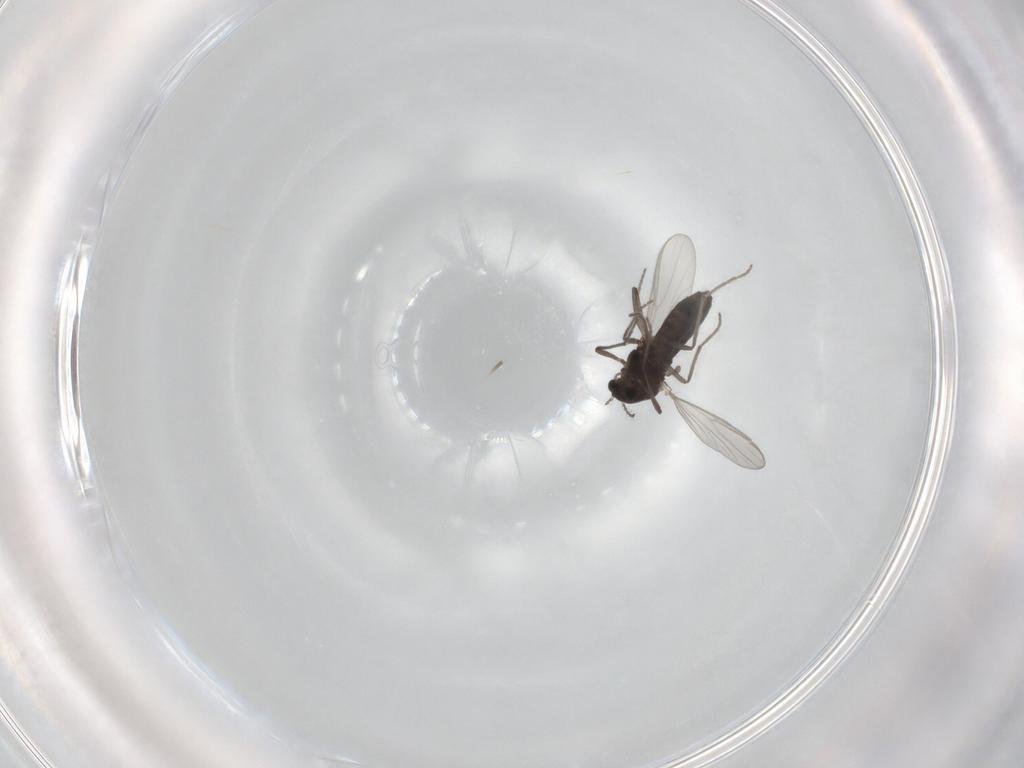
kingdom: Animalia
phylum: Arthropoda
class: Insecta
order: Diptera
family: Chironomidae
